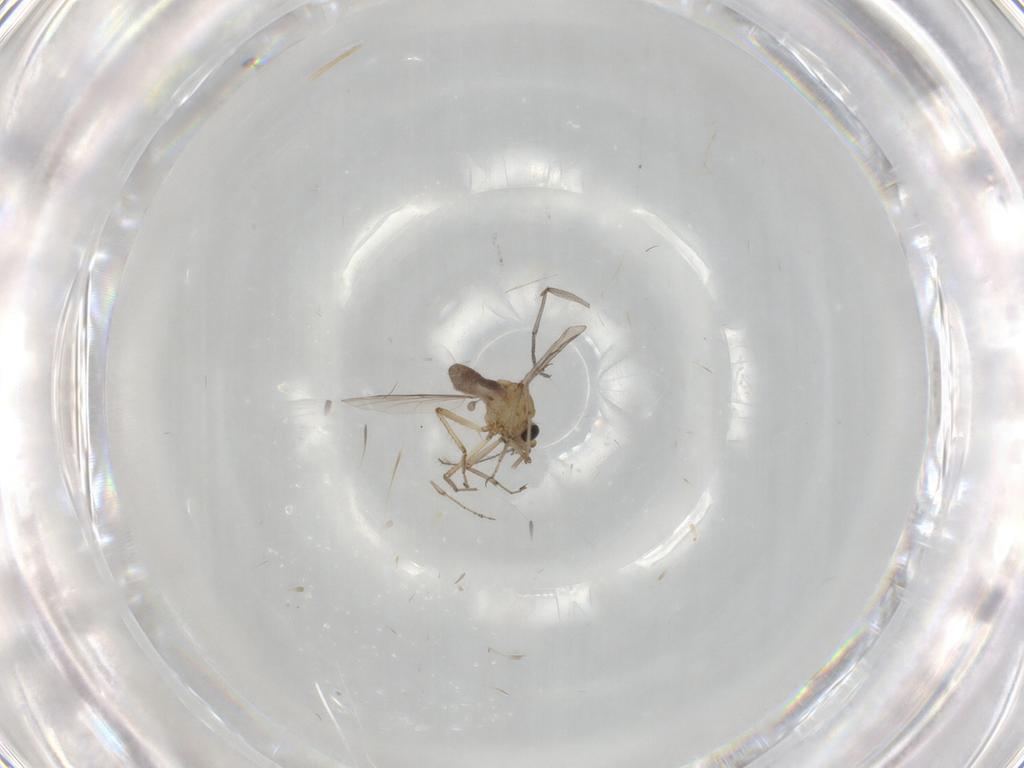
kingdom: Animalia
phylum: Arthropoda
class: Insecta
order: Diptera
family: Sciaridae
